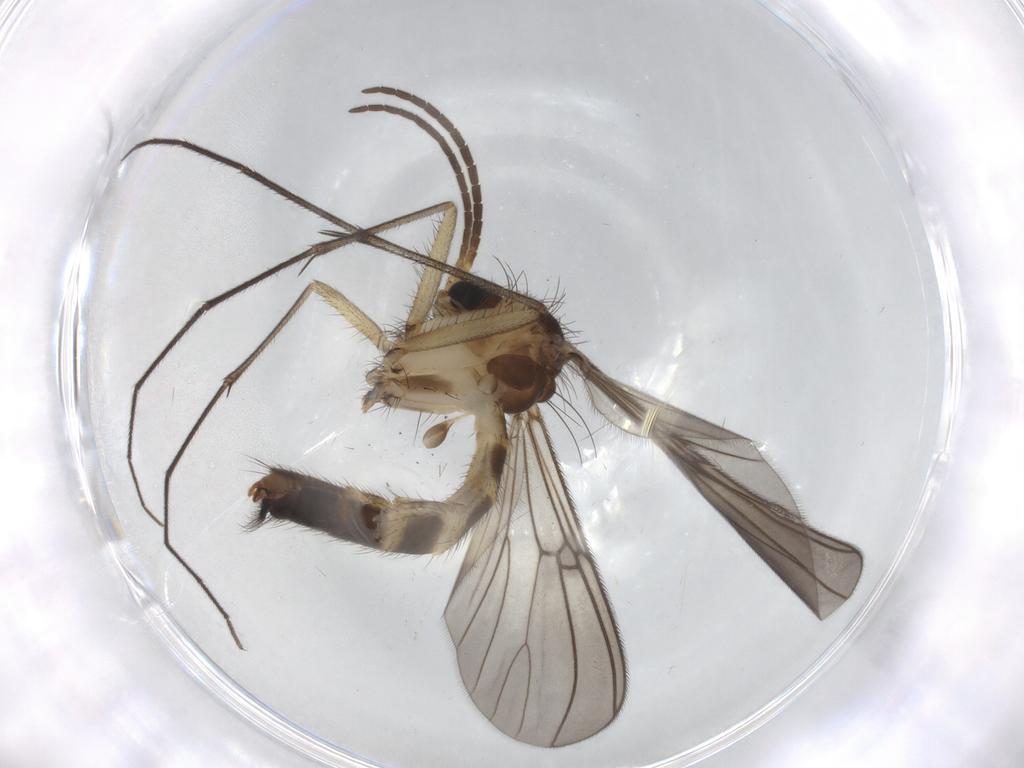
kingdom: Animalia
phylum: Arthropoda
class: Insecta
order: Diptera
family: Mycetophilidae
